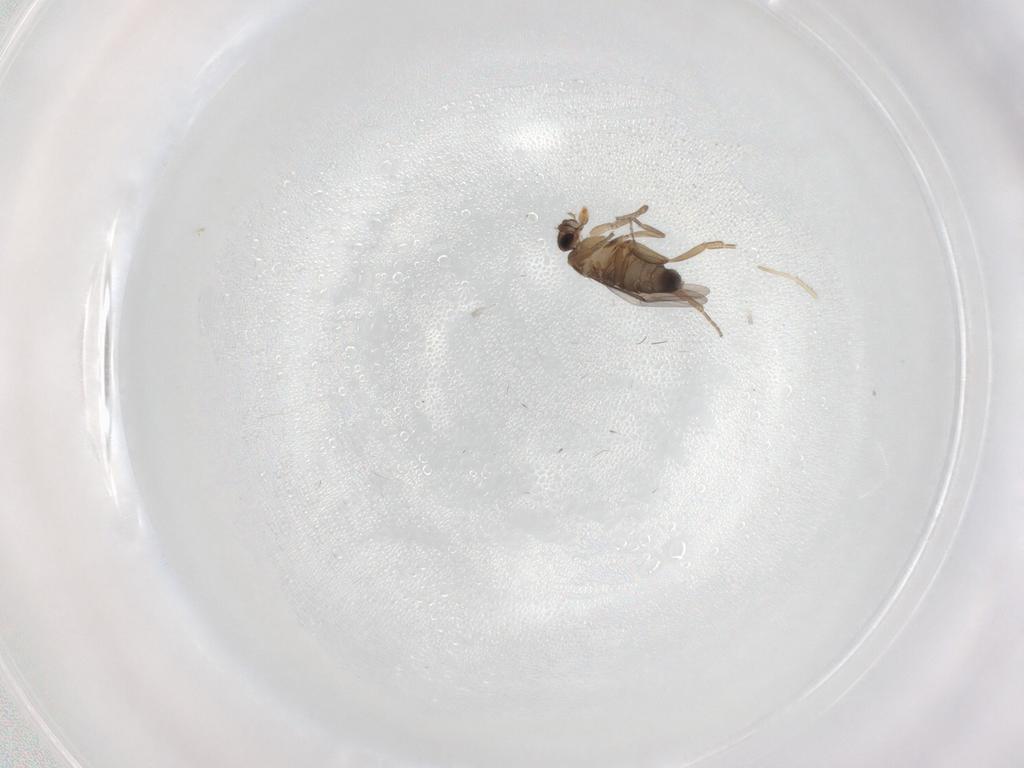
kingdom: Animalia
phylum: Arthropoda
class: Insecta
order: Diptera
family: Phoridae
